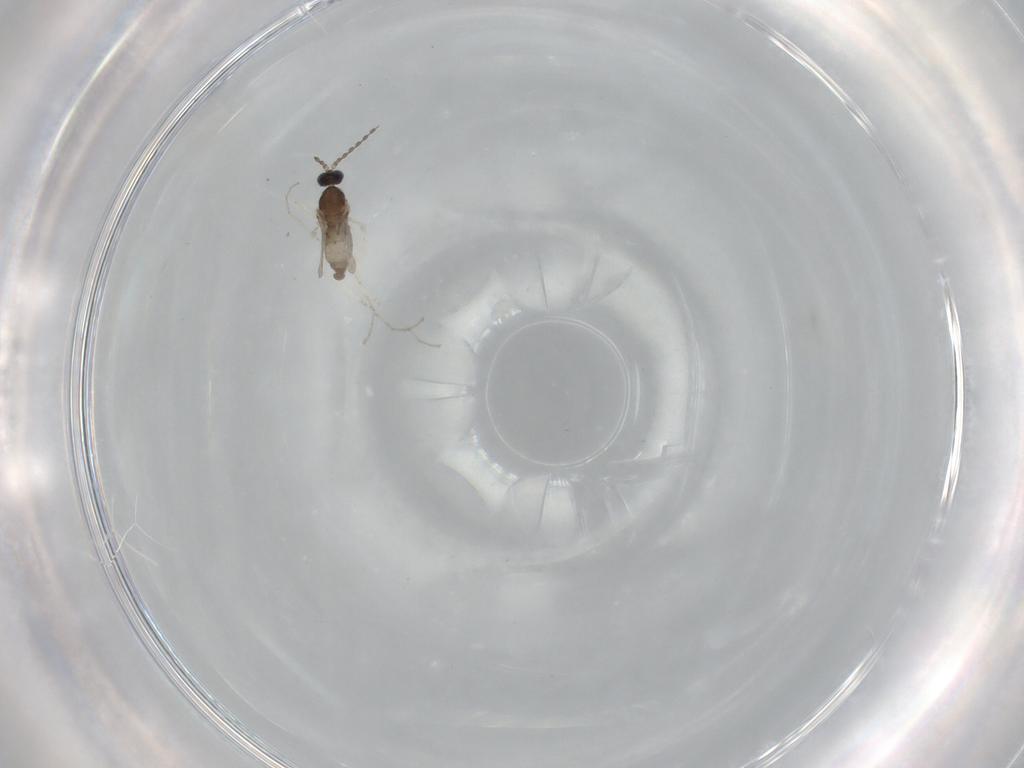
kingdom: Animalia
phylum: Arthropoda
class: Insecta
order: Diptera
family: Cecidomyiidae
